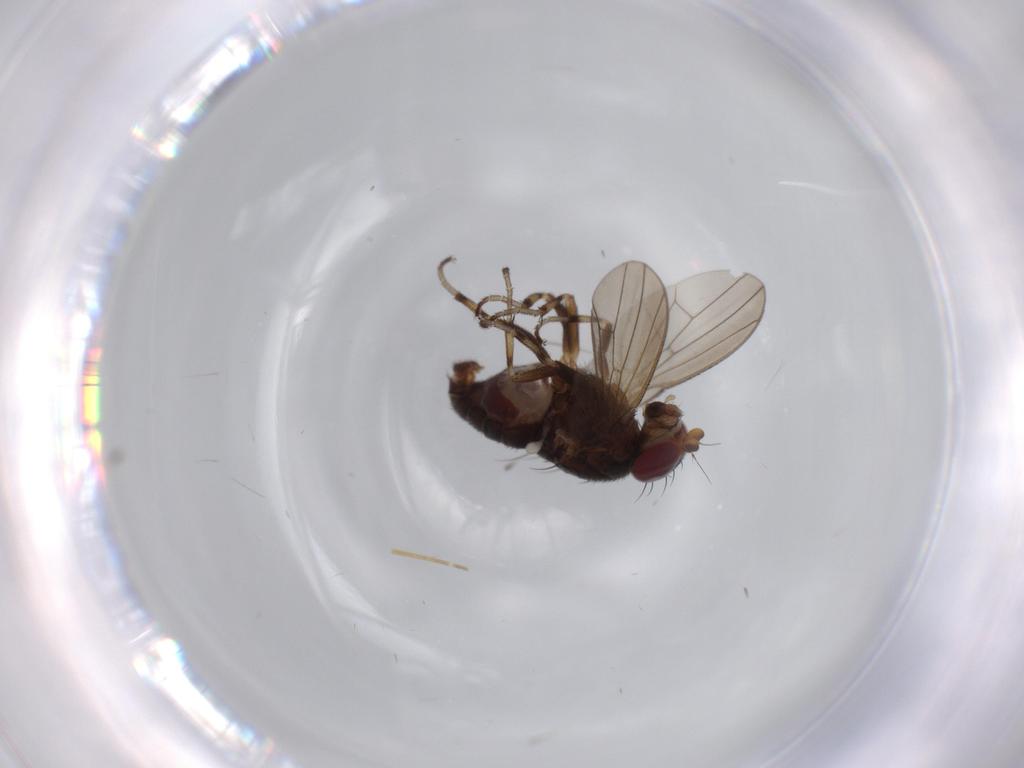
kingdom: Animalia
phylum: Arthropoda
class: Insecta
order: Diptera
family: Heleomyzidae
